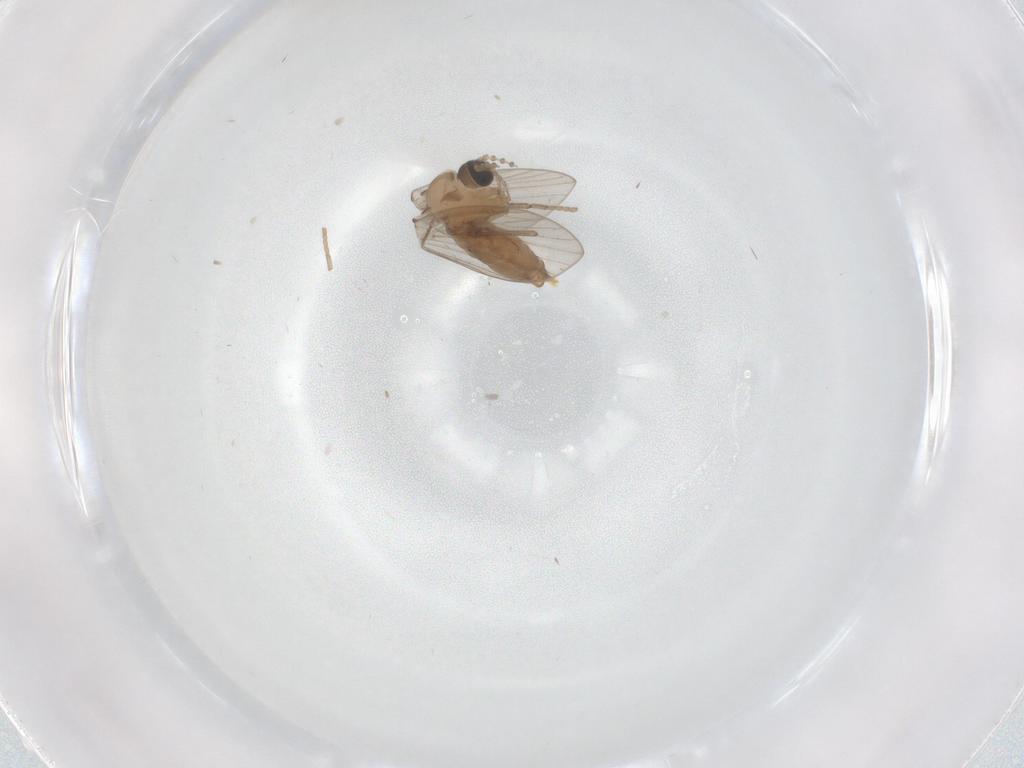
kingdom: Animalia
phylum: Arthropoda
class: Insecta
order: Diptera
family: Psychodidae
